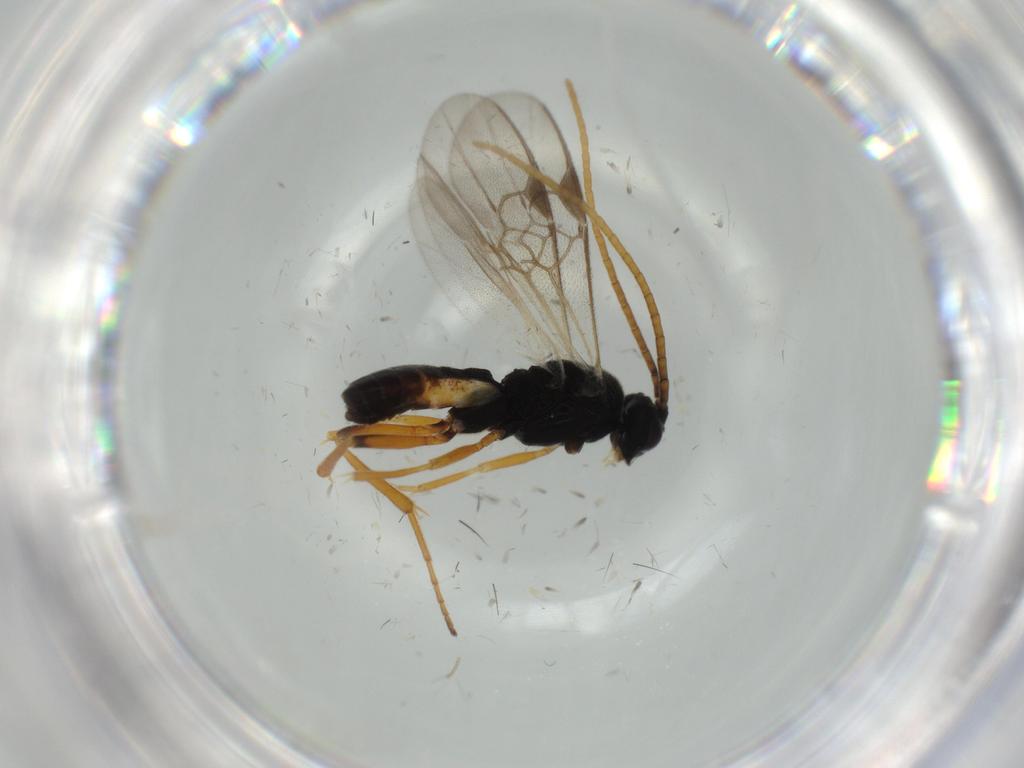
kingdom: Animalia
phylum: Arthropoda
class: Insecta
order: Hymenoptera
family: Braconidae
